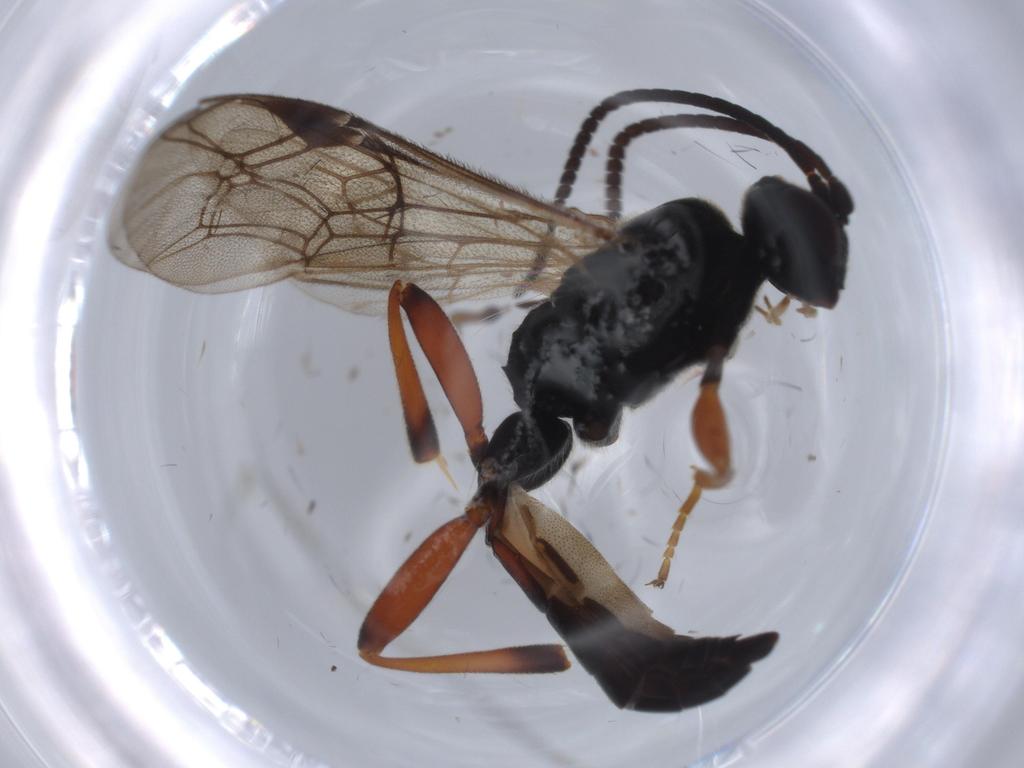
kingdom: Animalia
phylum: Arthropoda
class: Insecta
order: Hymenoptera
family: Ichneumonidae
